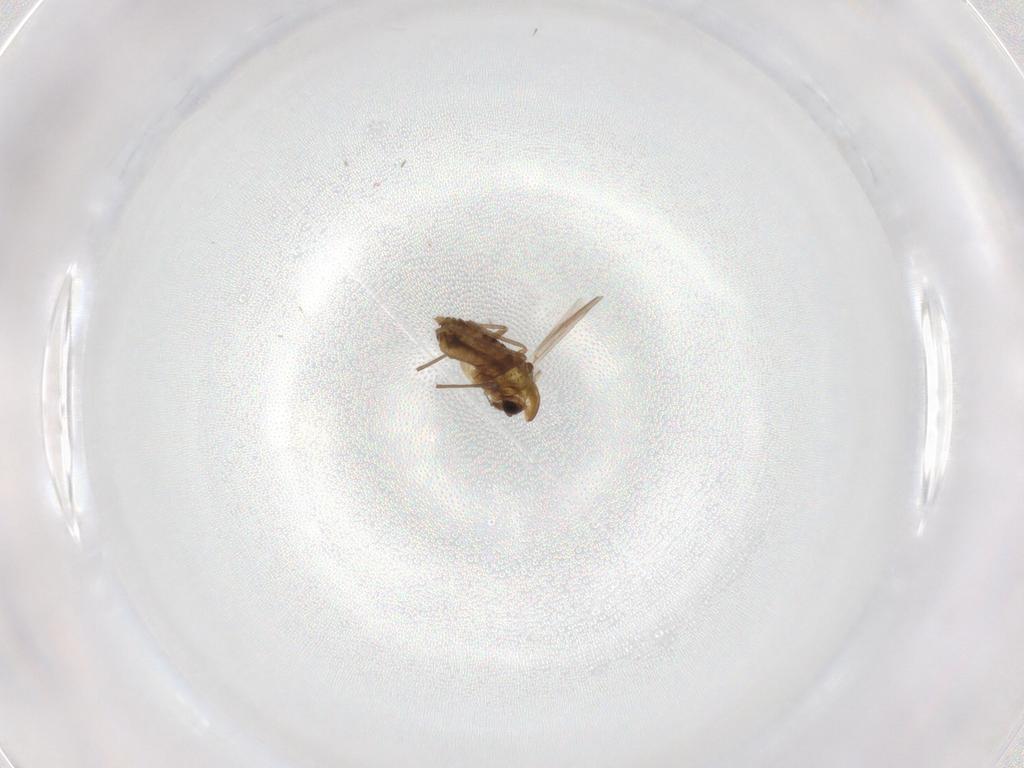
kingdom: Animalia
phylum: Arthropoda
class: Insecta
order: Diptera
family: Chironomidae
